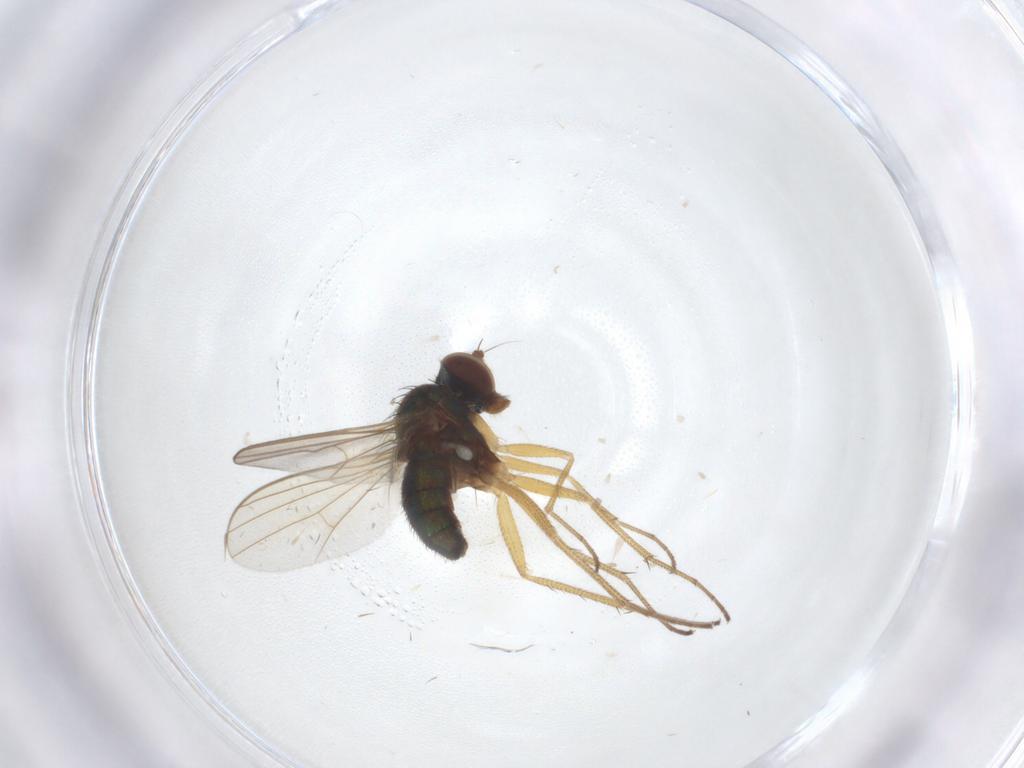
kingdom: Animalia
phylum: Arthropoda
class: Insecta
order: Diptera
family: Dolichopodidae
